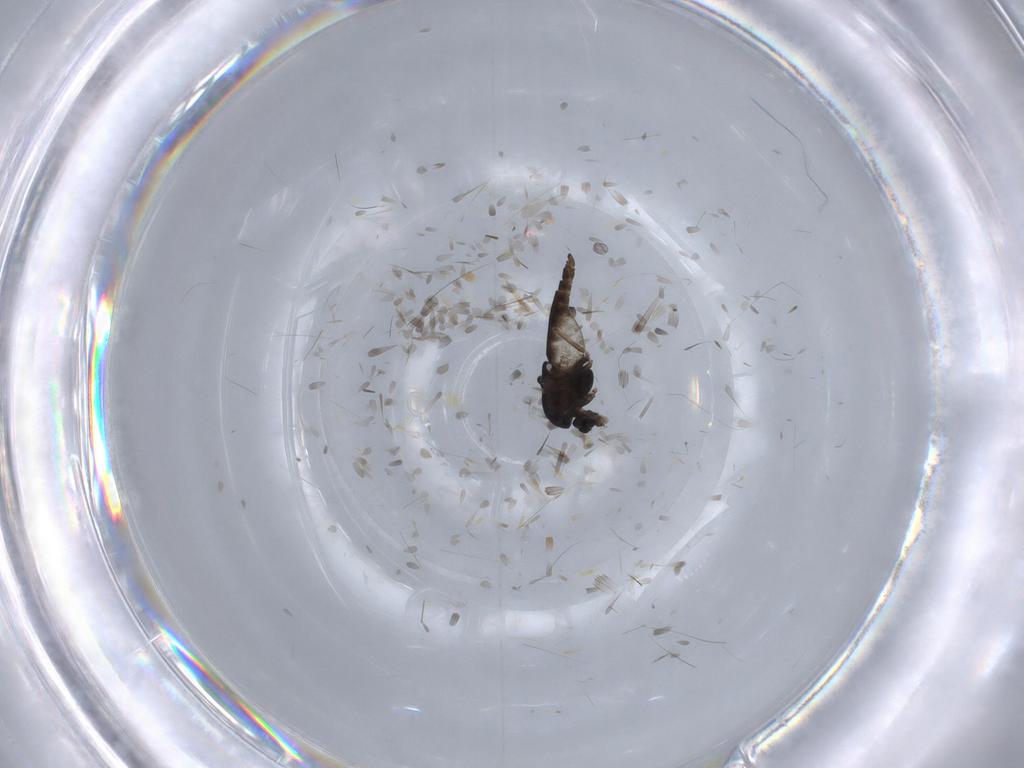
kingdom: Animalia
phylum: Arthropoda
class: Insecta
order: Diptera
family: Chironomidae
